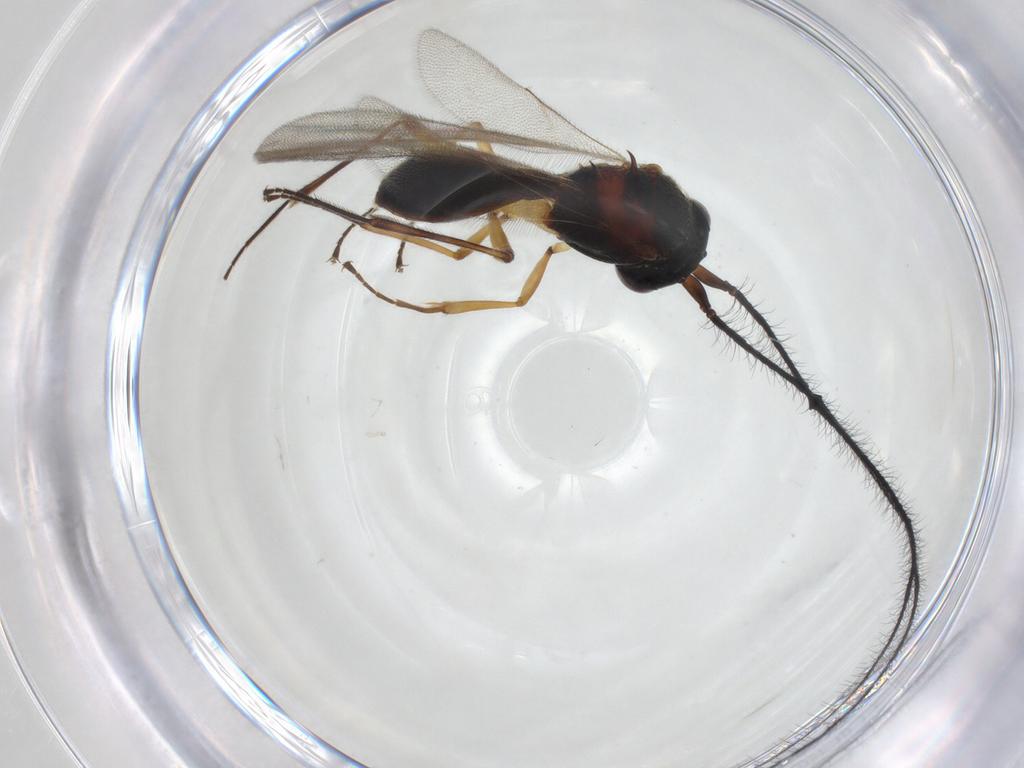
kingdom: Animalia
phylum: Arthropoda
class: Insecta
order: Hymenoptera
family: Scelionidae
